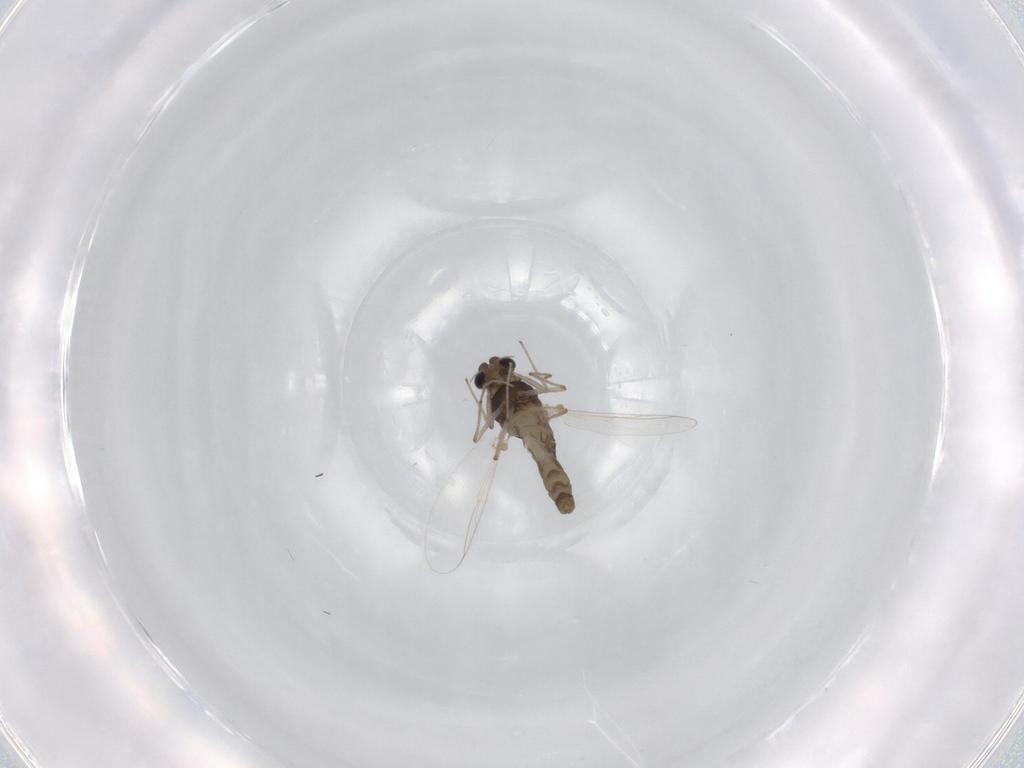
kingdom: Animalia
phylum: Arthropoda
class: Insecta
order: Diptera
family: Chironomidae
